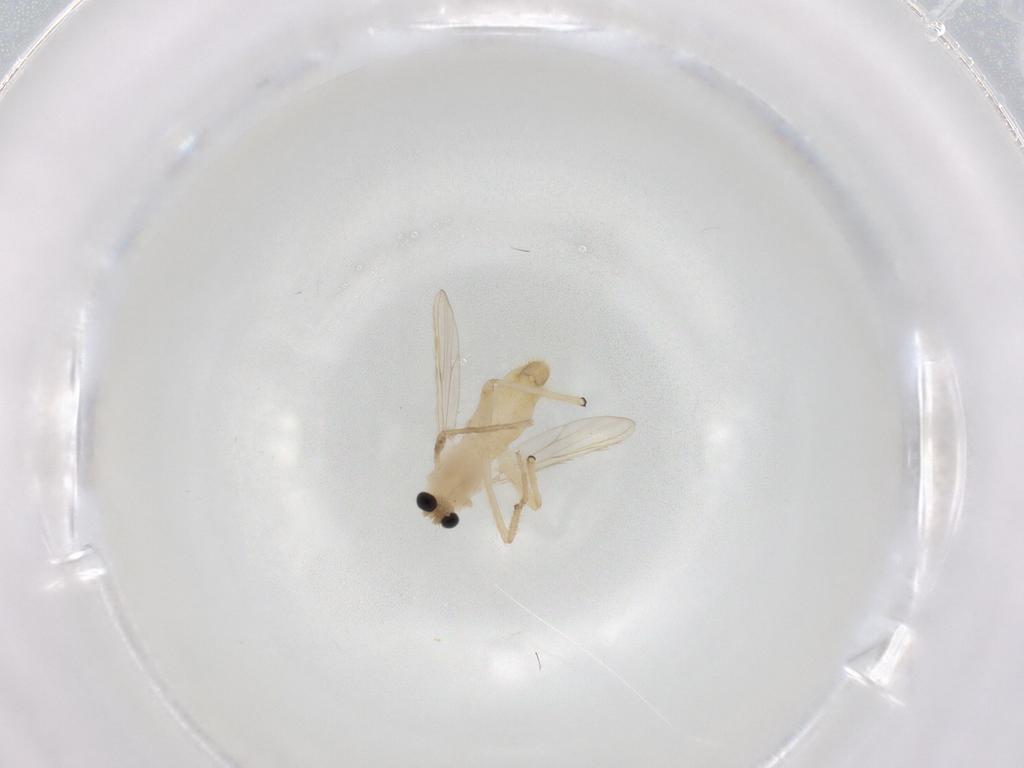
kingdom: Animalia
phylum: Arthropoda
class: Insecta
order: Diptera
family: Chironomidae
